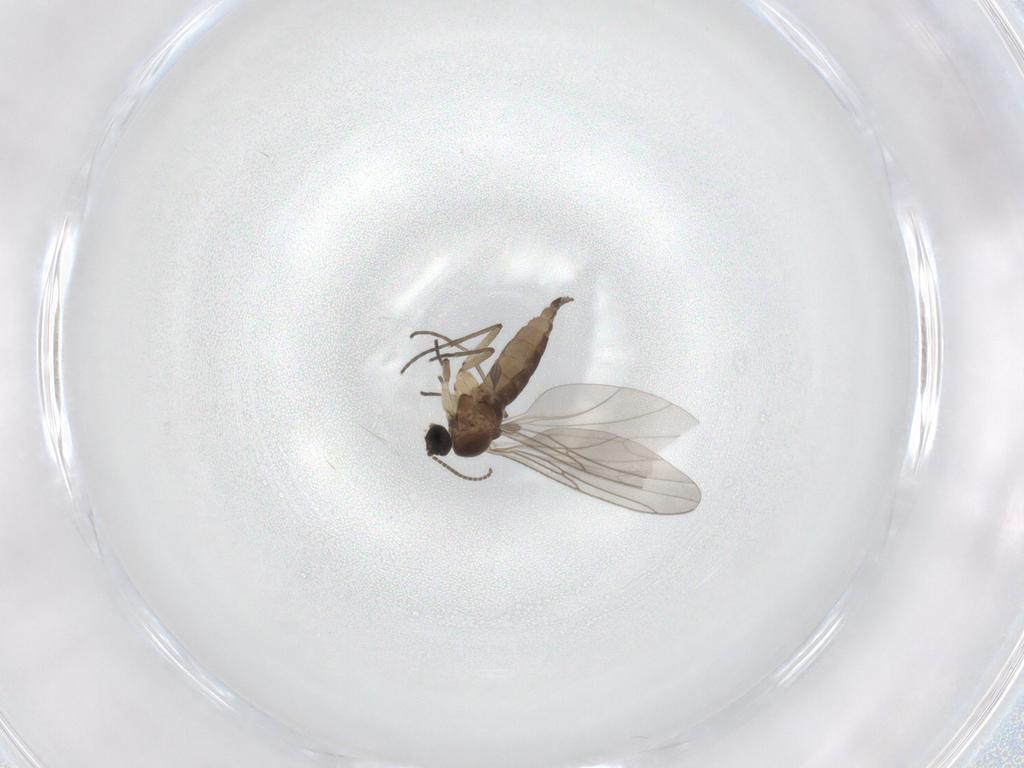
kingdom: Animalia
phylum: Arthropoda
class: Insecta
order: Diptera
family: Sciaridae
